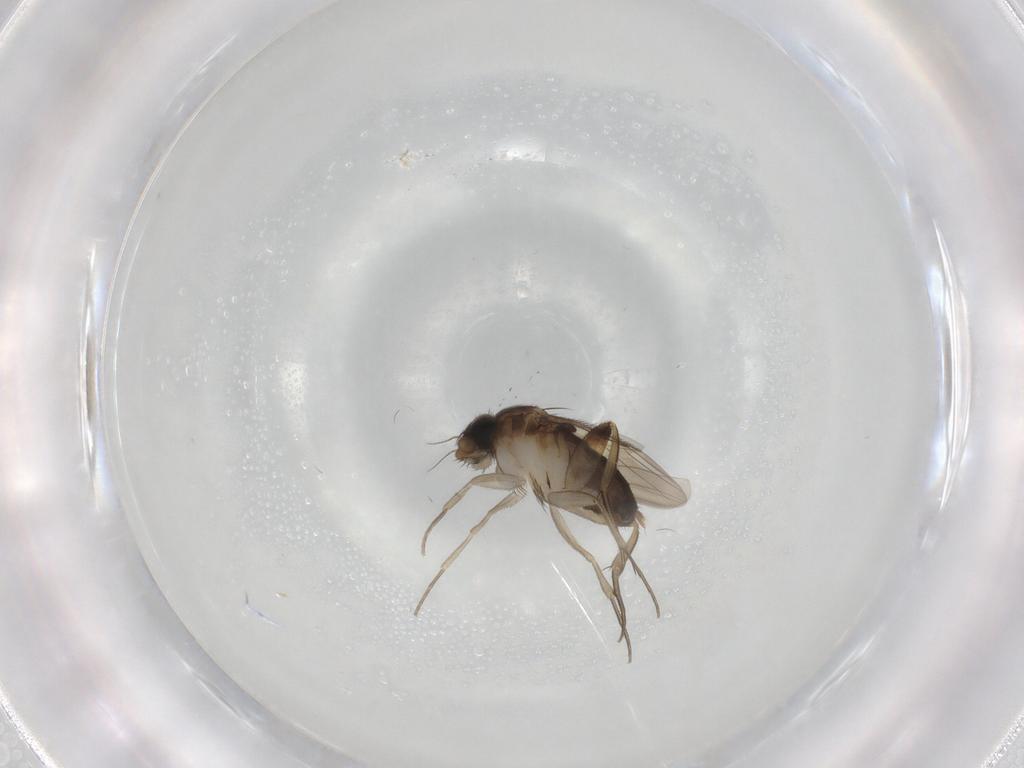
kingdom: Animalia
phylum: Arthropoda
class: Insecta
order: Diptera
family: Phoridae
